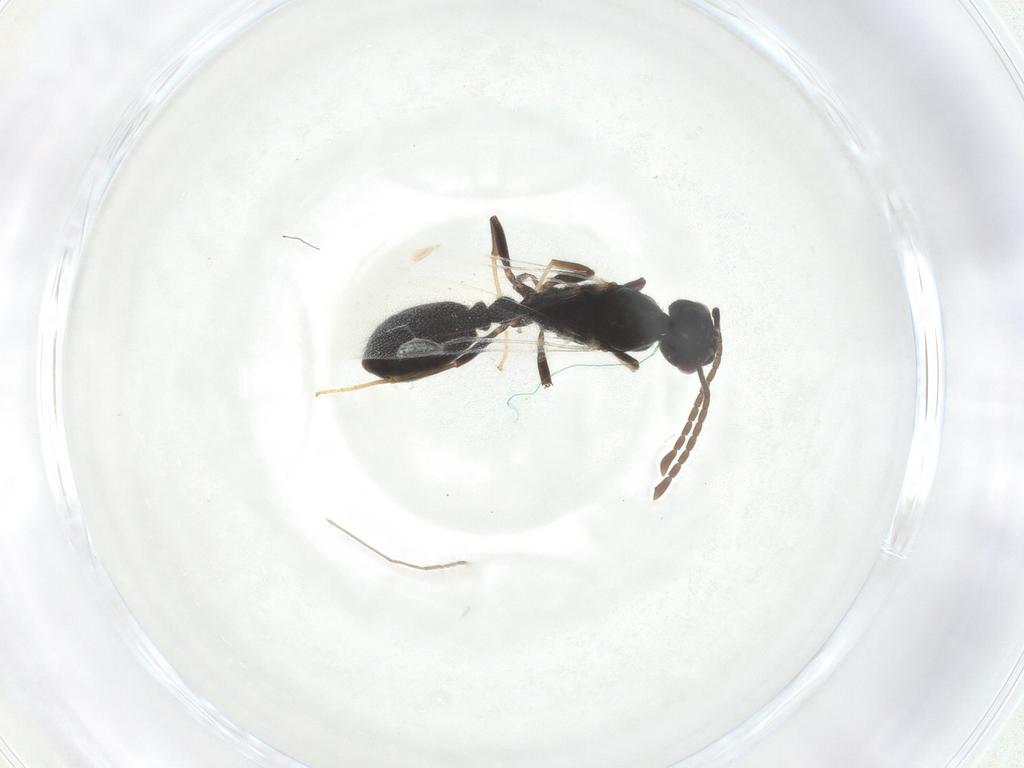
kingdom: Animalia
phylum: Arthropoda
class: Insecta
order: Hymenoptera
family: Formicidae
